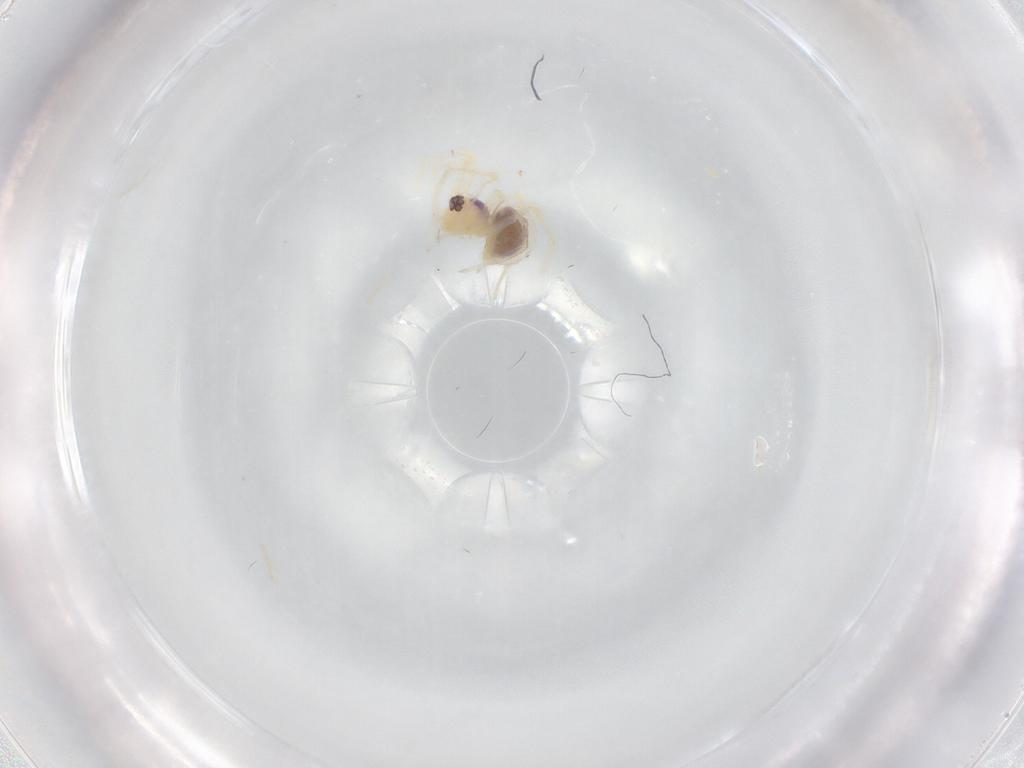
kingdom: Animalia
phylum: Arthropoda
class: Arachnida
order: Araneae
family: Pholcidae
